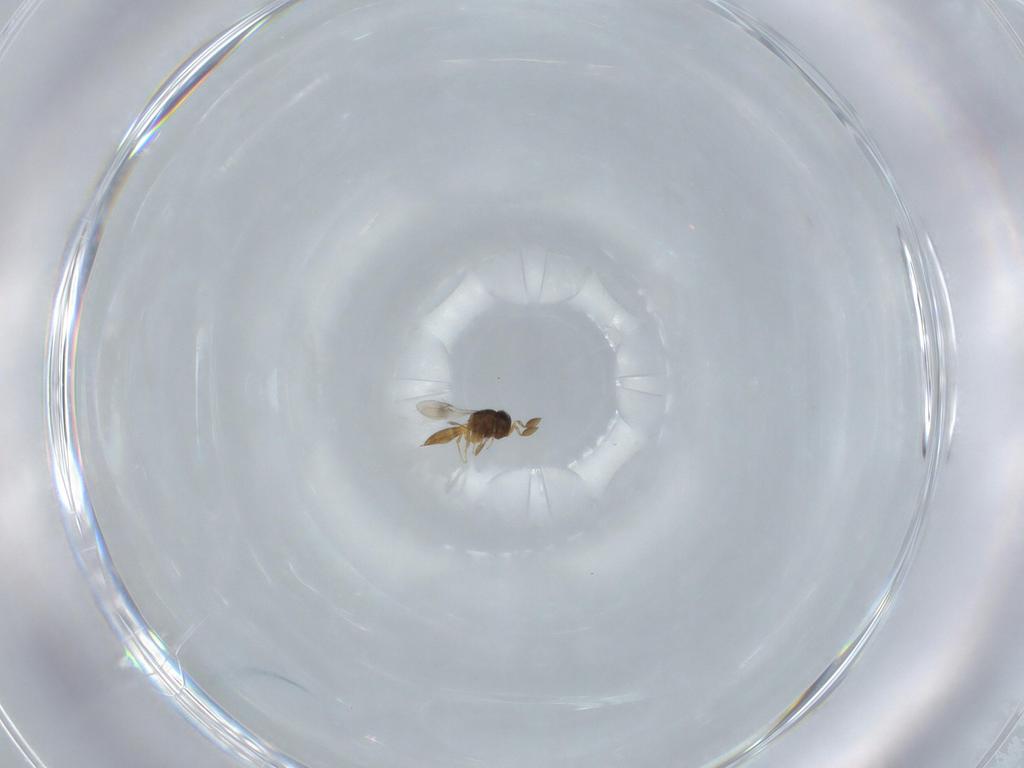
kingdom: Animalia
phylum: Arthropoda
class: Insecta
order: Hymenoptera
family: Scelionidae
